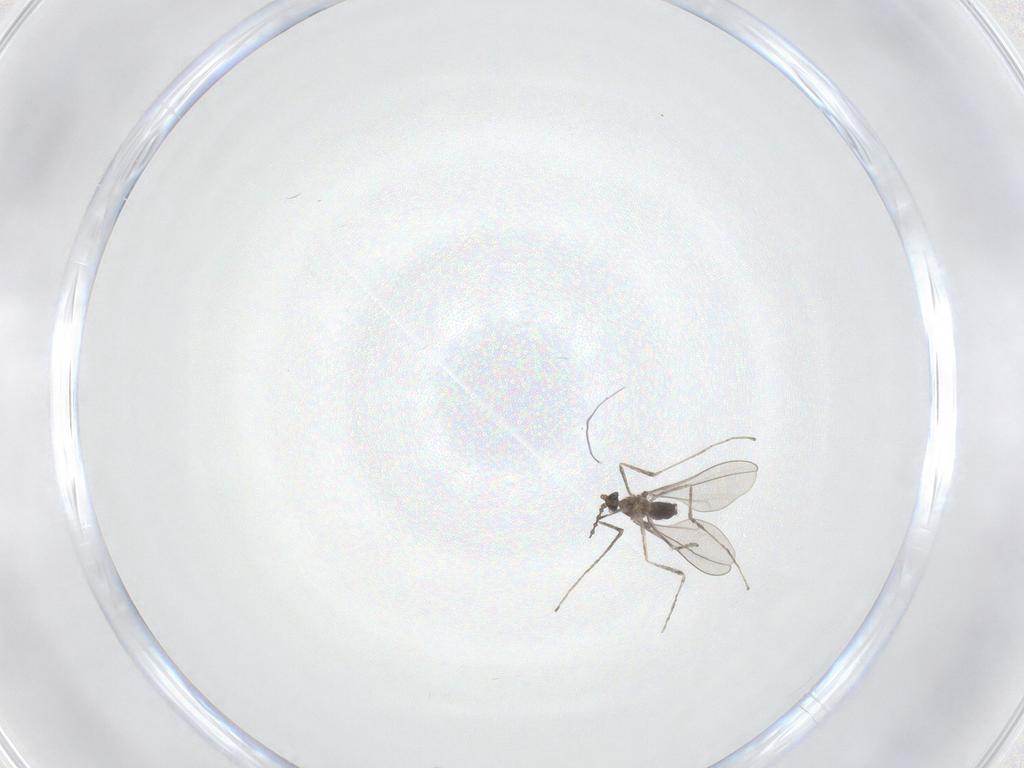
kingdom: Animalia
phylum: Arthropoda
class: Insecta
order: Diptera
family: Cecidomyiidae
